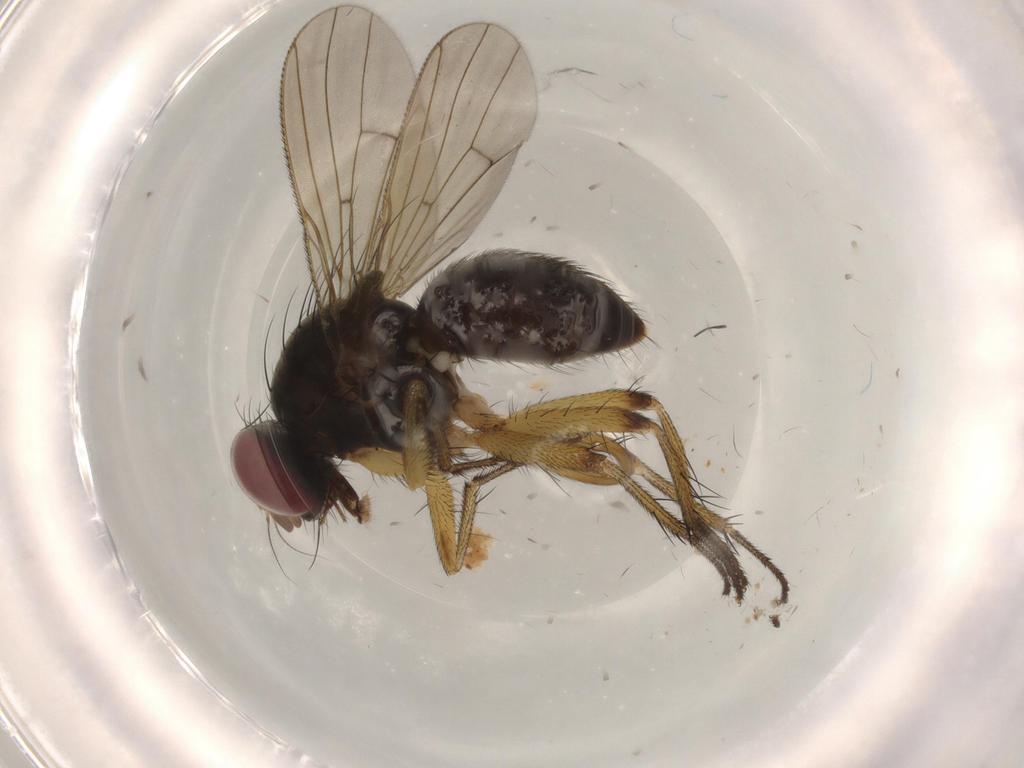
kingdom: Animalia
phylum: Arthropoda
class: Insecta
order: Diptera
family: Muscidae
